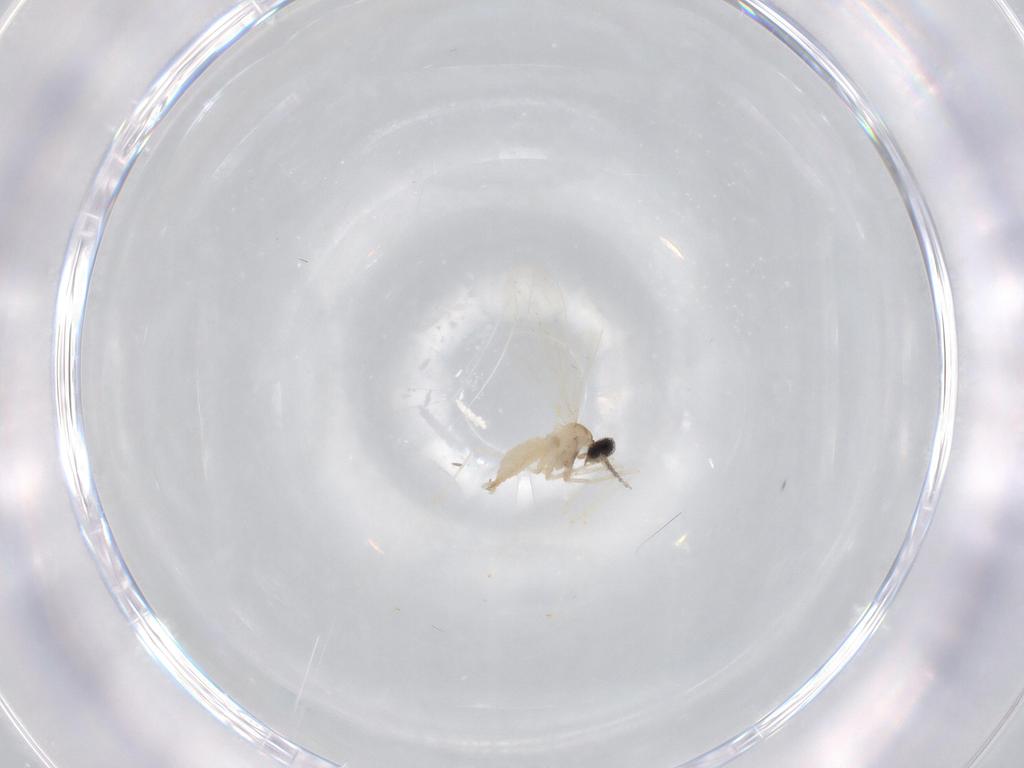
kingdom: Animalia
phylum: Arthropoda
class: Insecta
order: Diptera
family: Cecidomyiidae
